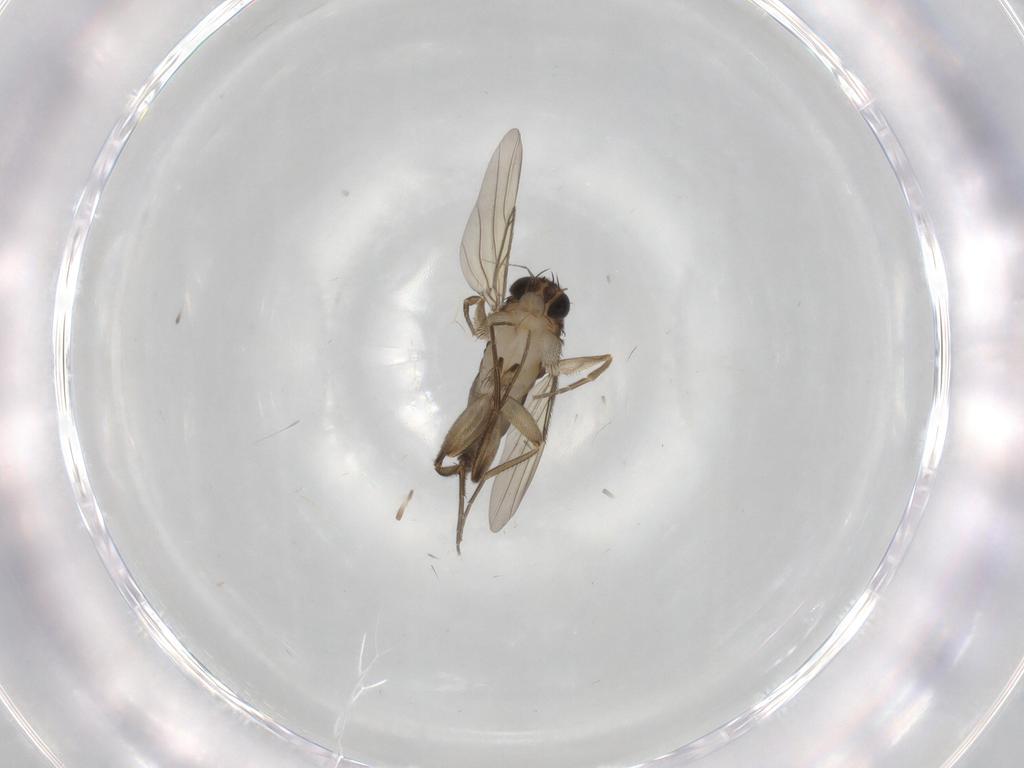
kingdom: Animalia
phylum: Arthropoda
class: Insecta
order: Diptera
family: Phoridae
